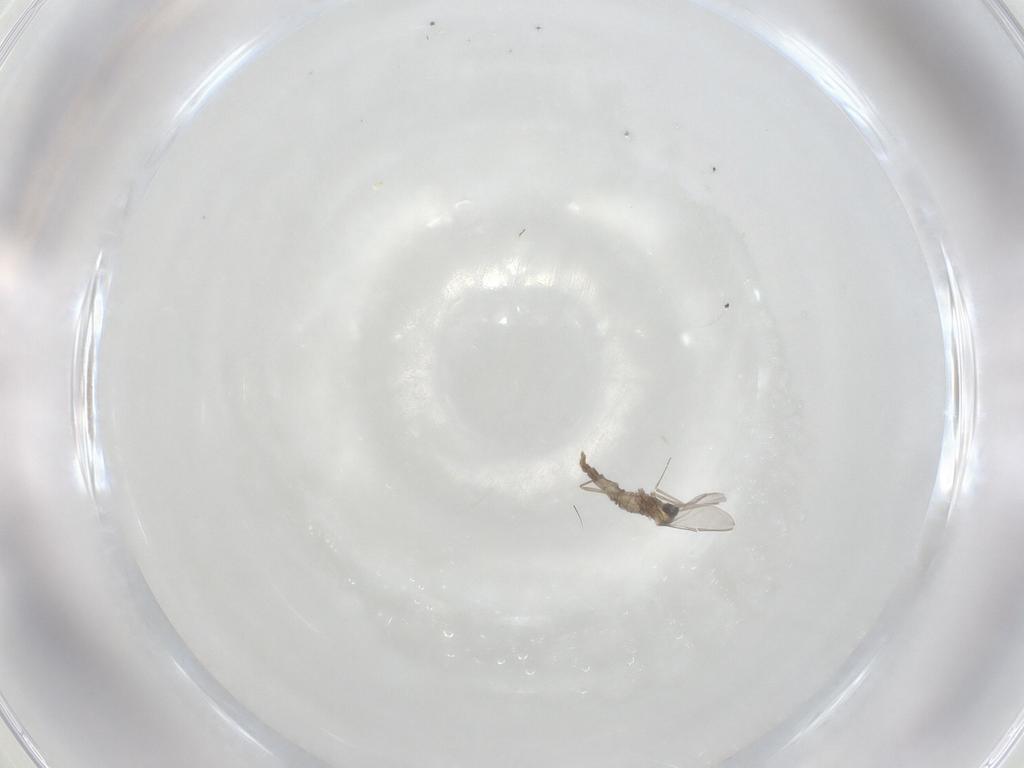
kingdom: Animalia
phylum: Arthropoda
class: Insecta
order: Diptera
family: Cecidomyiidae
